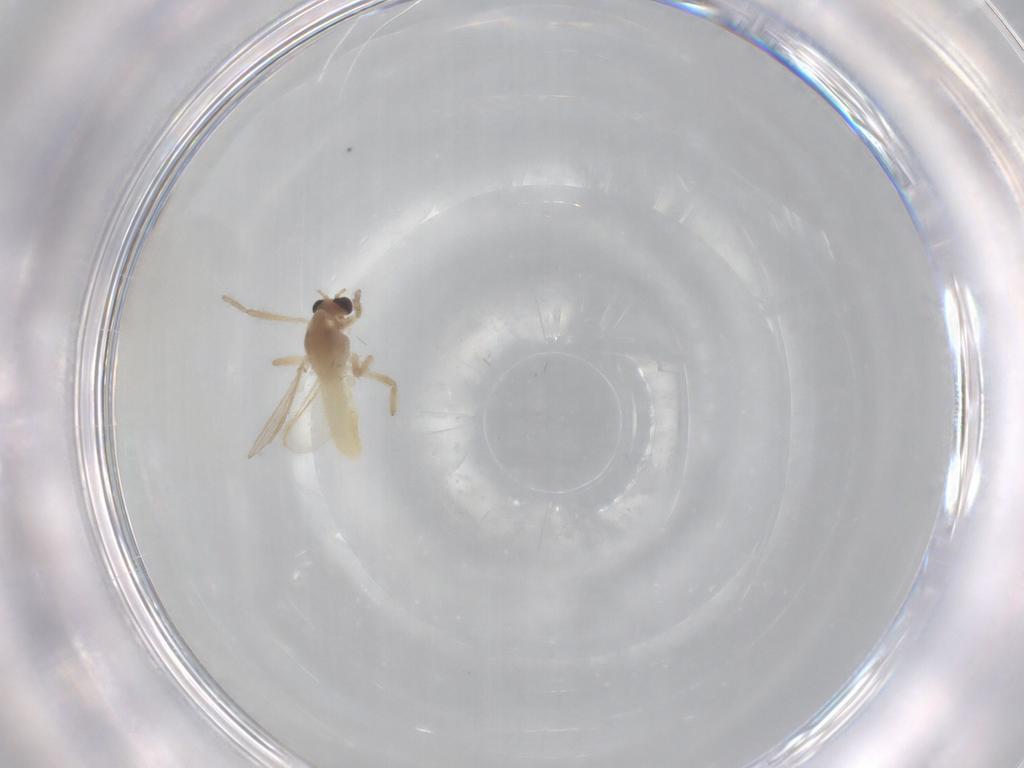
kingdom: Animalia
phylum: Arthropoda
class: Insecta
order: Diptera
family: Chironomidae
